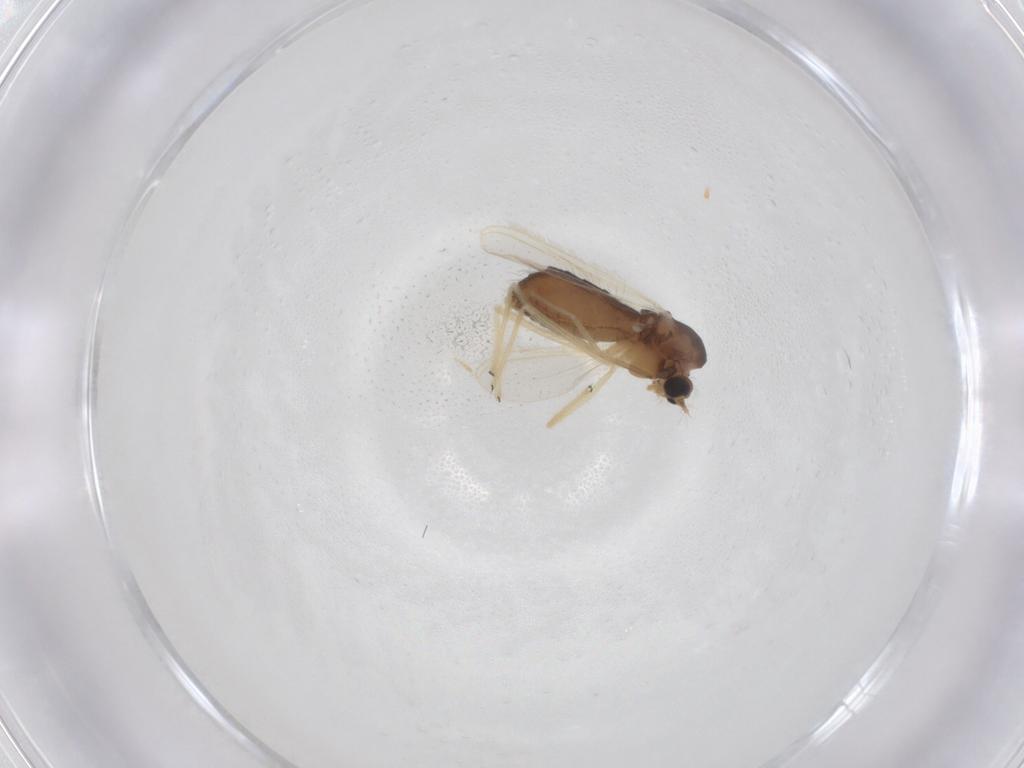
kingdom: Animalia
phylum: Arthropoda
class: Insecta
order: Diptera
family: Chironomidae
